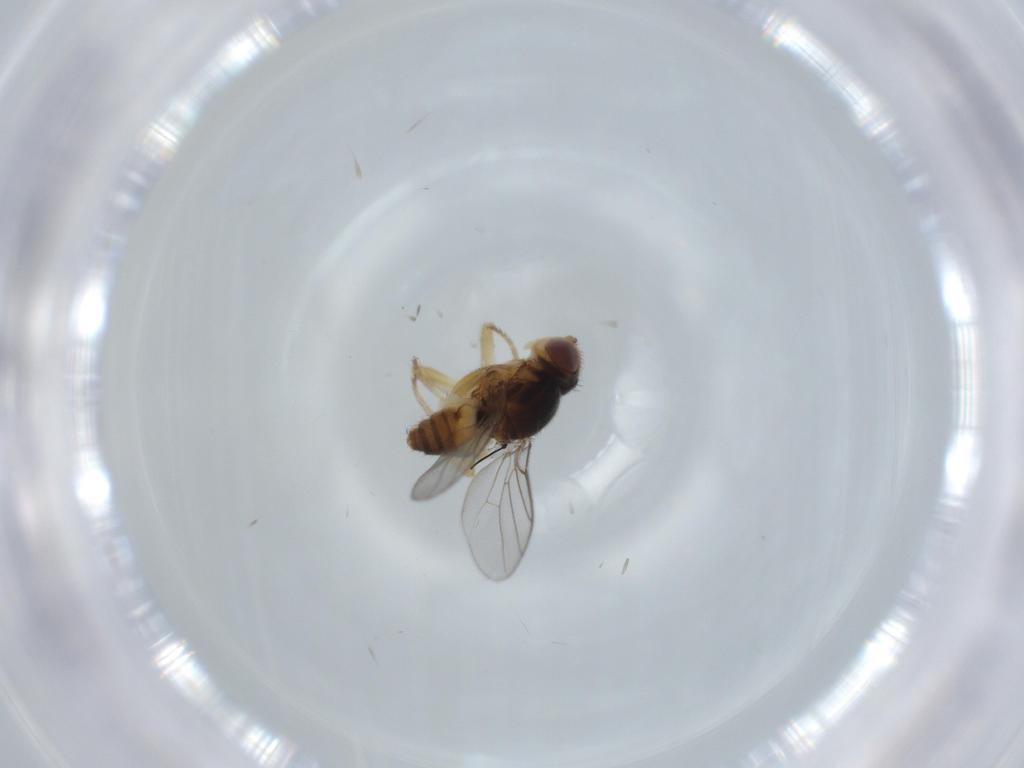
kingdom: Animalia
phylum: Arthropoda
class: Insecta
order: Diptera
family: Chloropidae
